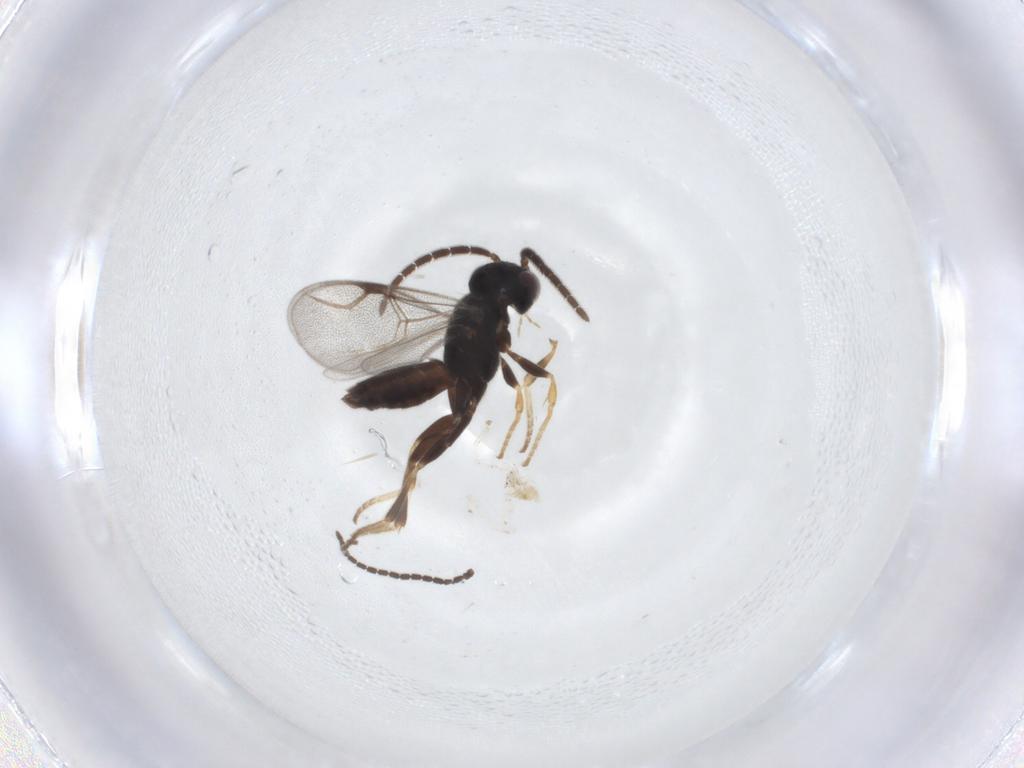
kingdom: Animalia
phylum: Arthropoda
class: Insecta
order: Hymenoptera
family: Dryinidae
